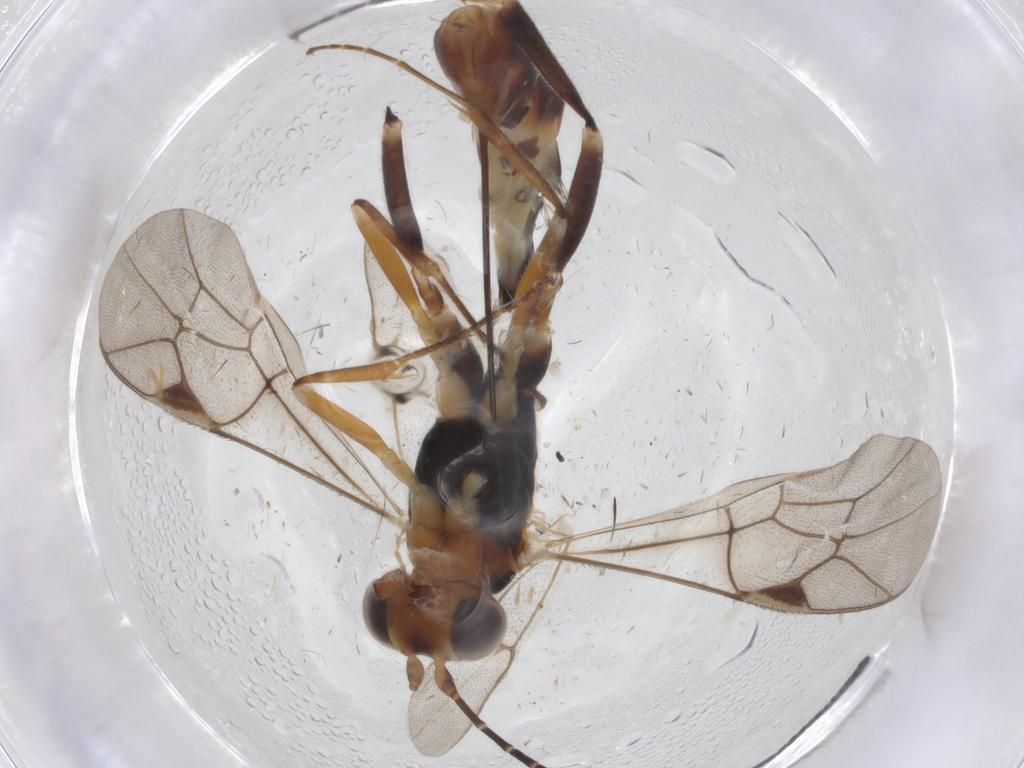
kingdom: Animalia
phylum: Arthropoda
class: Insecta
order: Hymenoptera
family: Ichneumonidae
